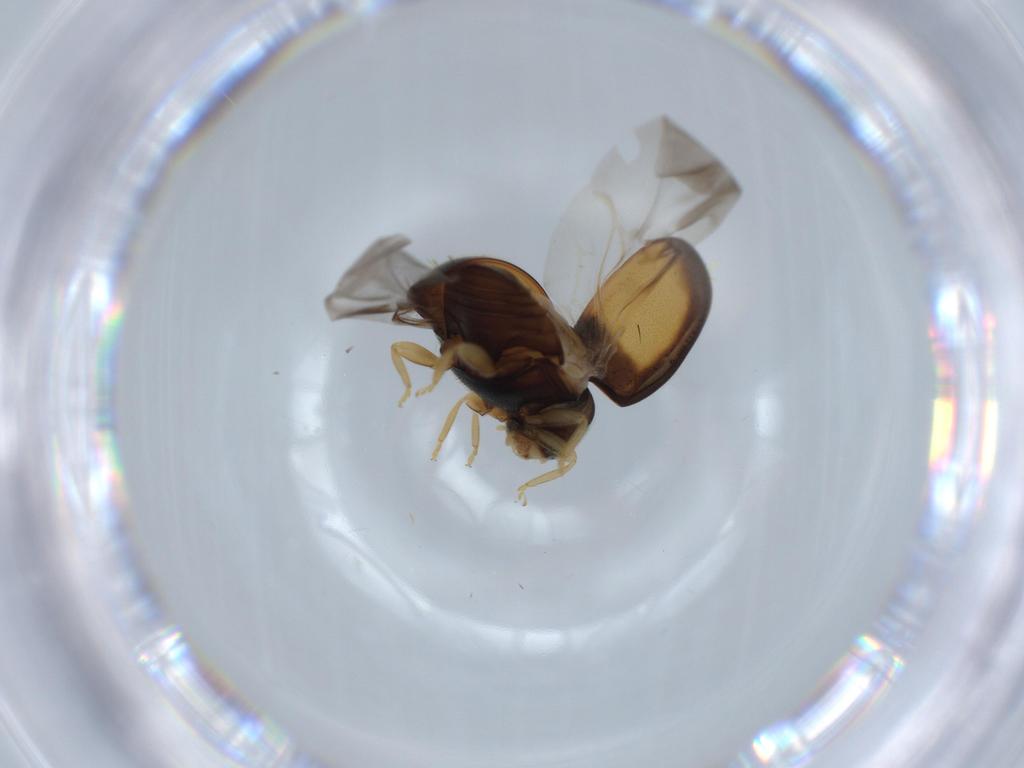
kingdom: Animalia
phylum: Arthropoda
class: Insecta
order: Coleoptera
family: Coccinellidae
